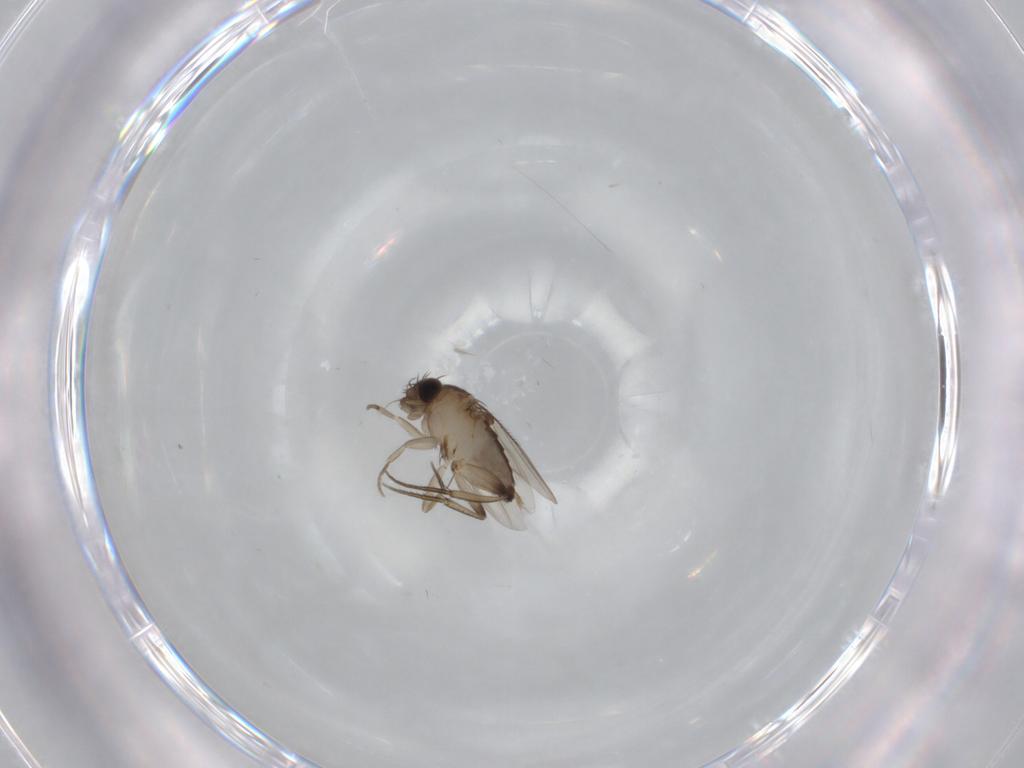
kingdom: Animalia
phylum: Arthropoda
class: Insecta
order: Diptera
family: Phoridae
